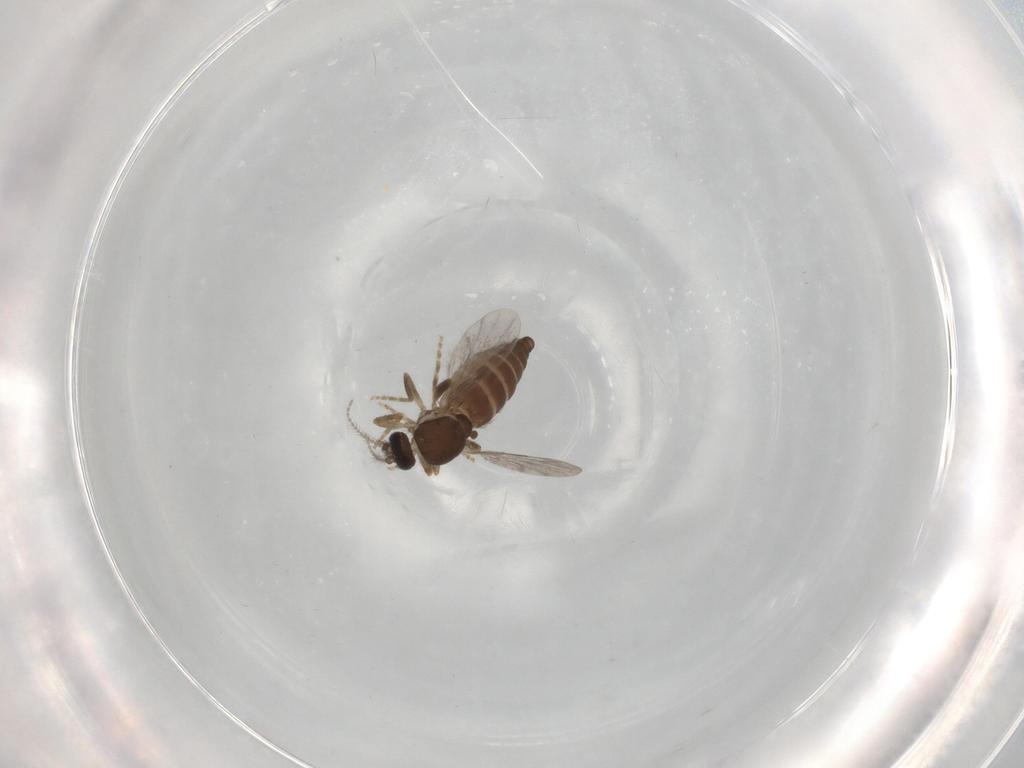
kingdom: Animalia
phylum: Arthropoda
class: Insecta
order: Diptera
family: Ceratopogonidae
